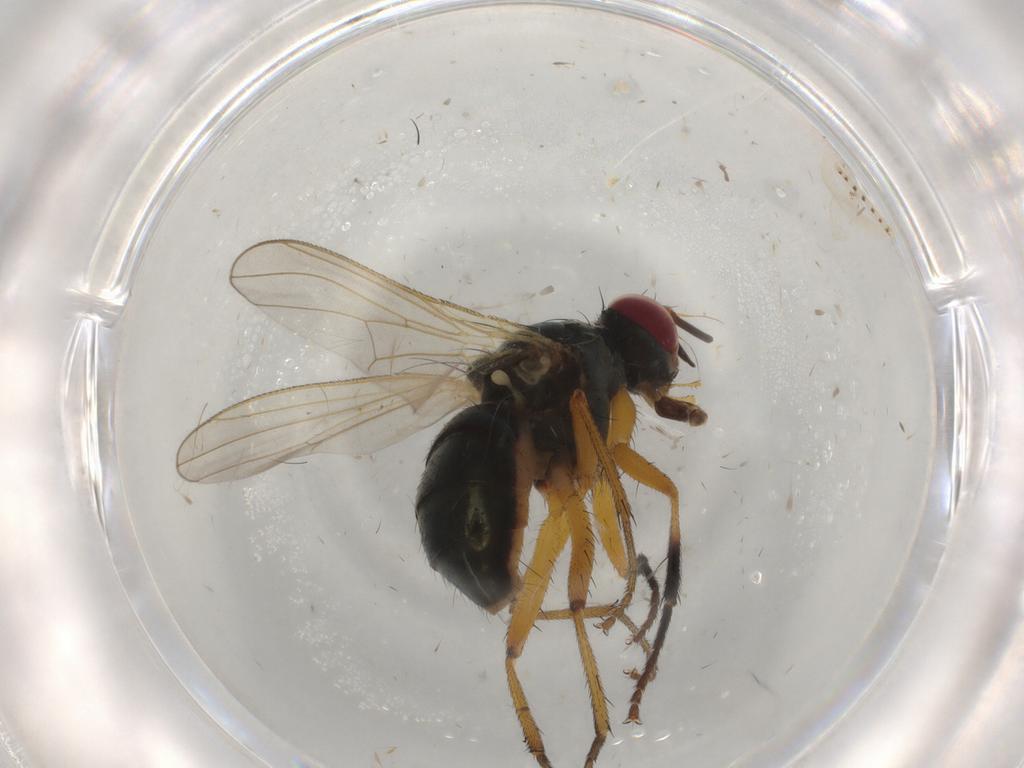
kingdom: Animalia
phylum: Arthropoda
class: Insecta
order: Diptera
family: Muscidae
